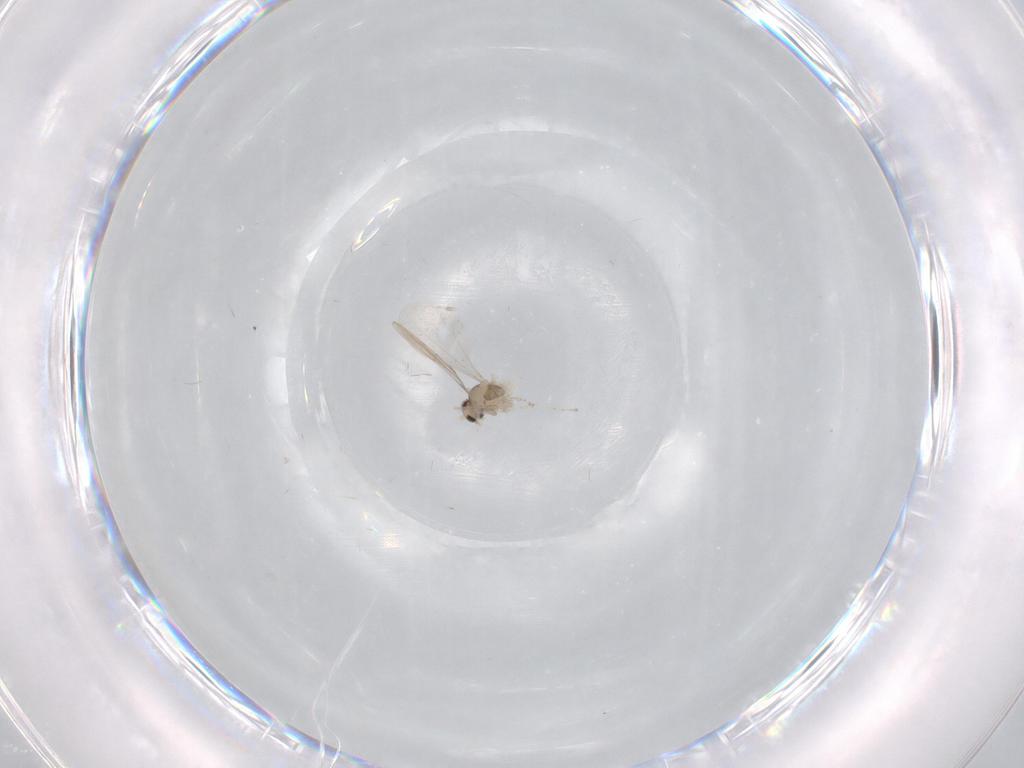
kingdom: Animalia
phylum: Arthropoda
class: Insecta
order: Diptera
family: Cecidomyiidae
